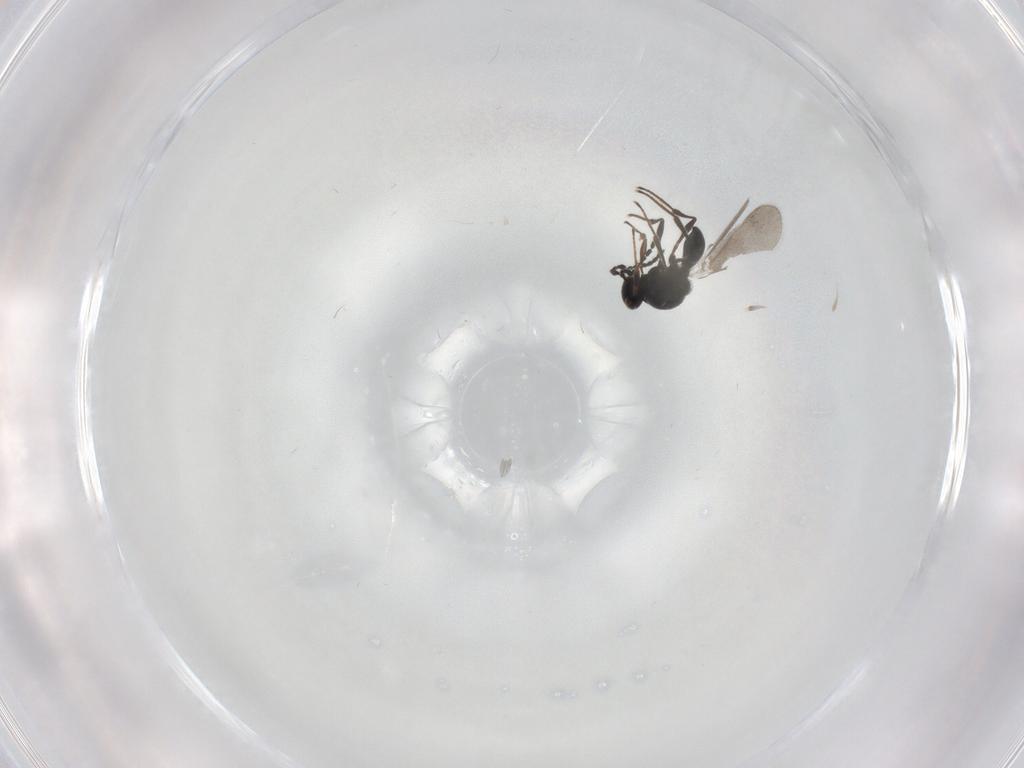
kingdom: Animalia
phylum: Arthropoda
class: Insecta
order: Hymenoptera
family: Platygastridae
